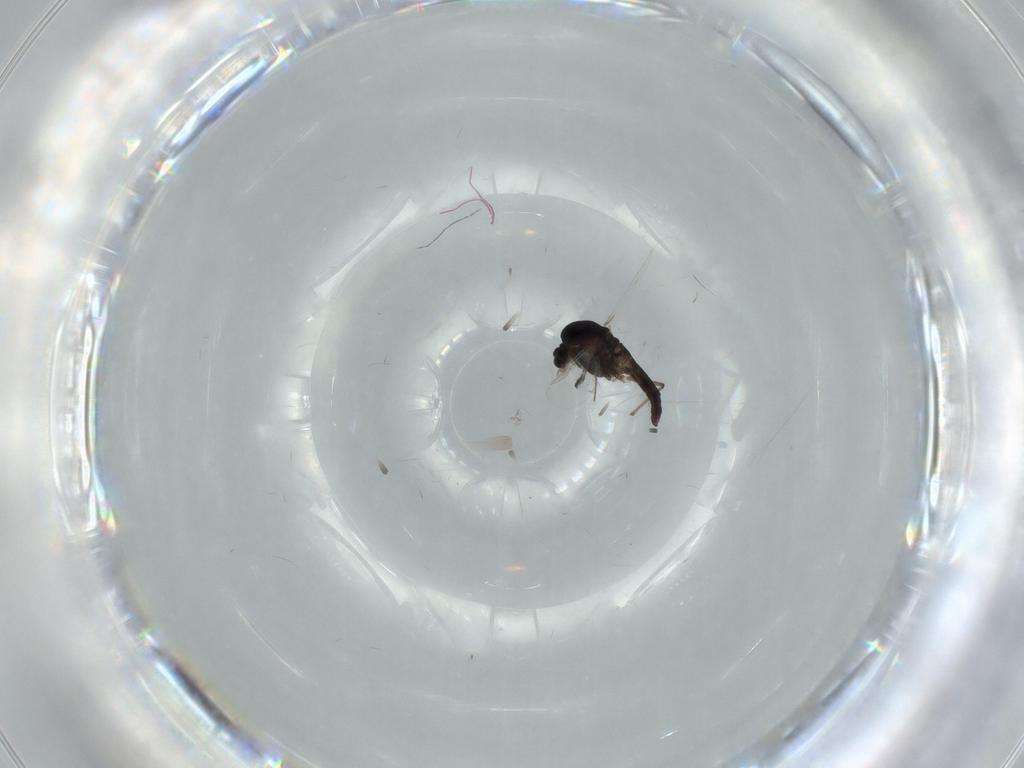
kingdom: Animalia
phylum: Arthropoda
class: Insecta
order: Diptera
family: Chironomidae
